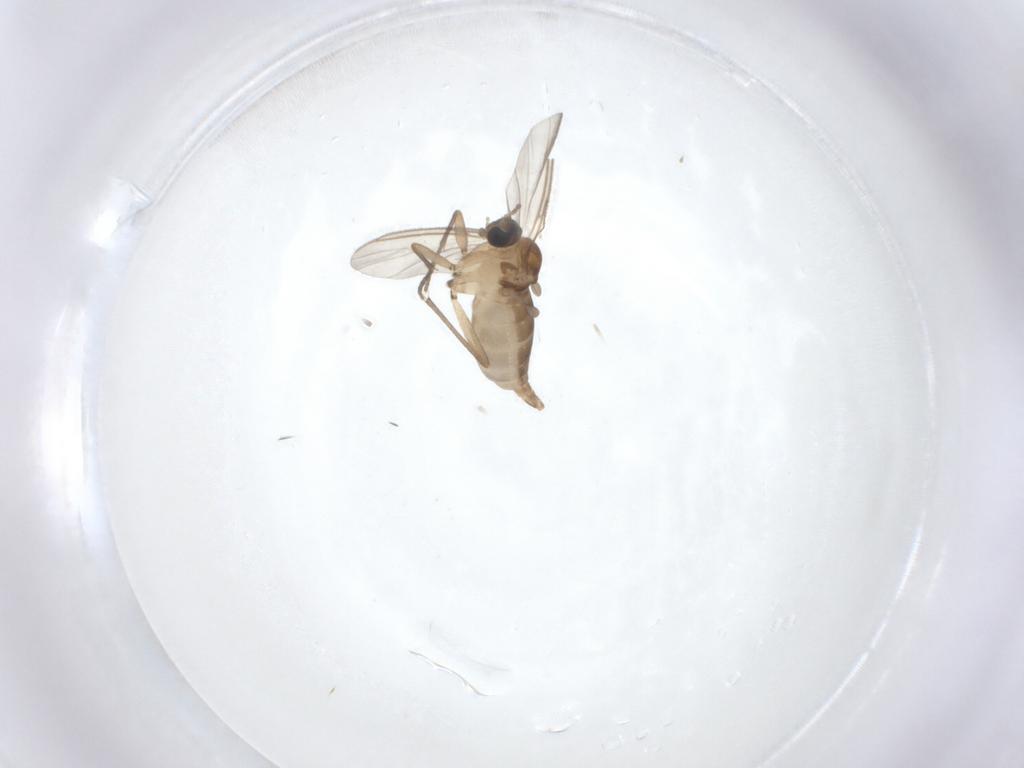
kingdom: Animalia
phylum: Arthropoda
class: Insecta
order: Diptera
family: Sciaridae
